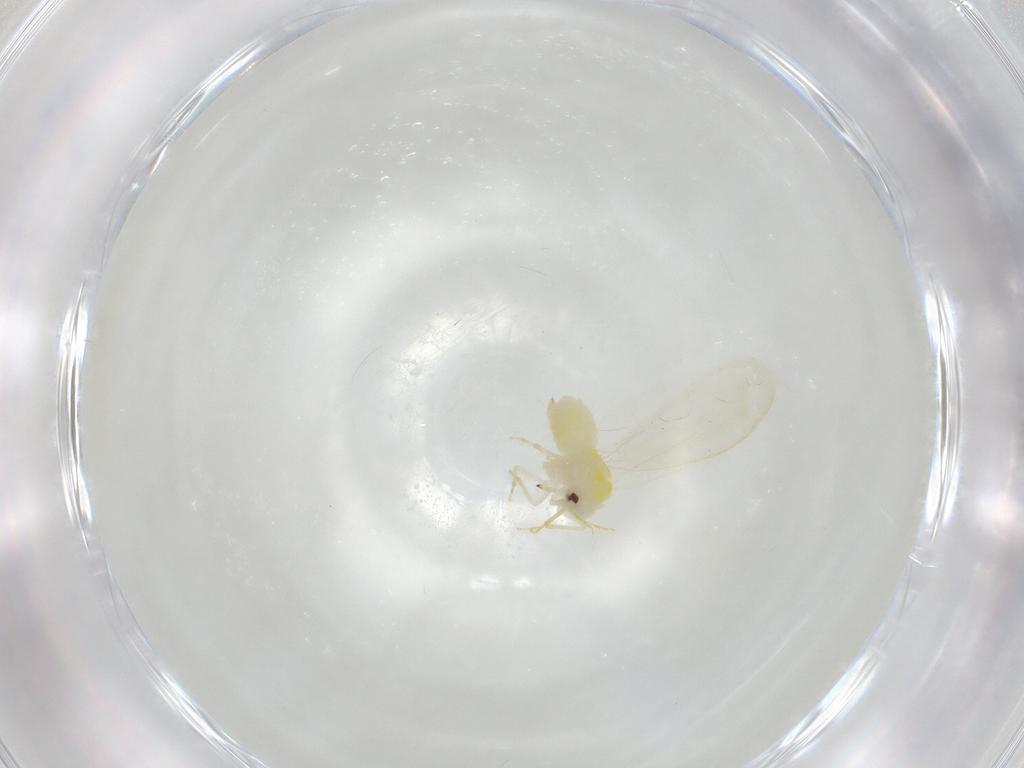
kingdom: Animalia
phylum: Arthropoda
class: Insecta
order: Hemiptera
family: Aleyrodidae
